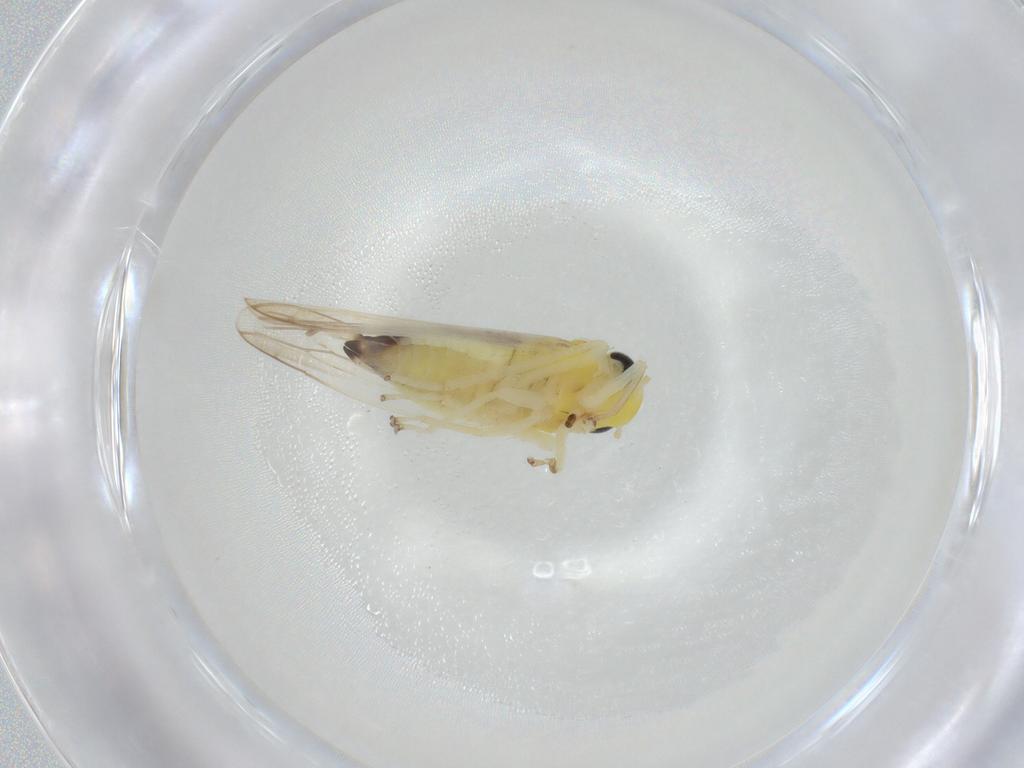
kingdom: Animalia
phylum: Arthropoda
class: Insecta
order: Hemiptera
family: Cicadellidae
